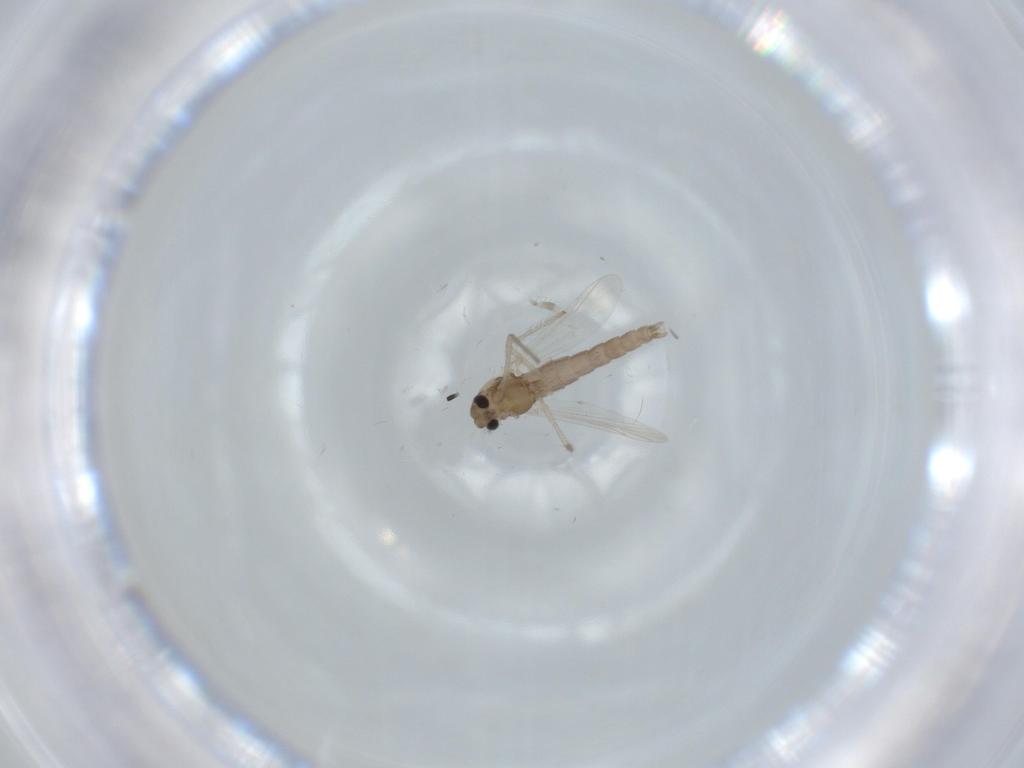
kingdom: Animalia
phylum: Arthropoda
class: Insecta
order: Diptera
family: Chironomidae
